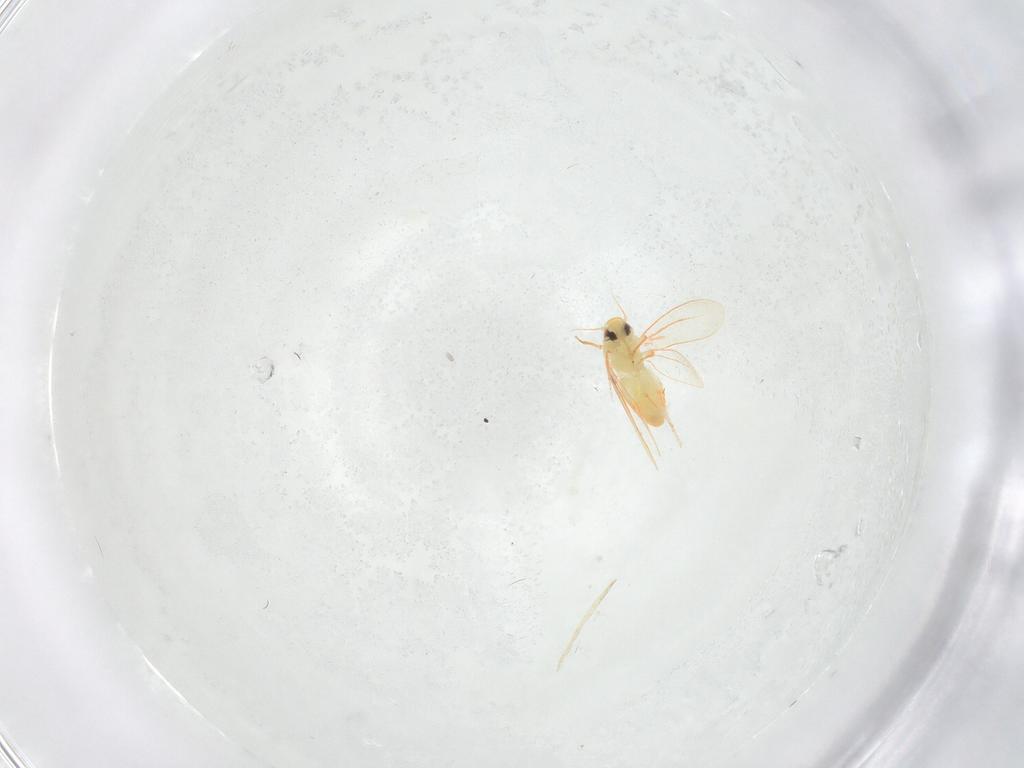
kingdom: Animalia
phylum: Arthropoda
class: Insecta
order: Hemiptera
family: Aleyrodidae
